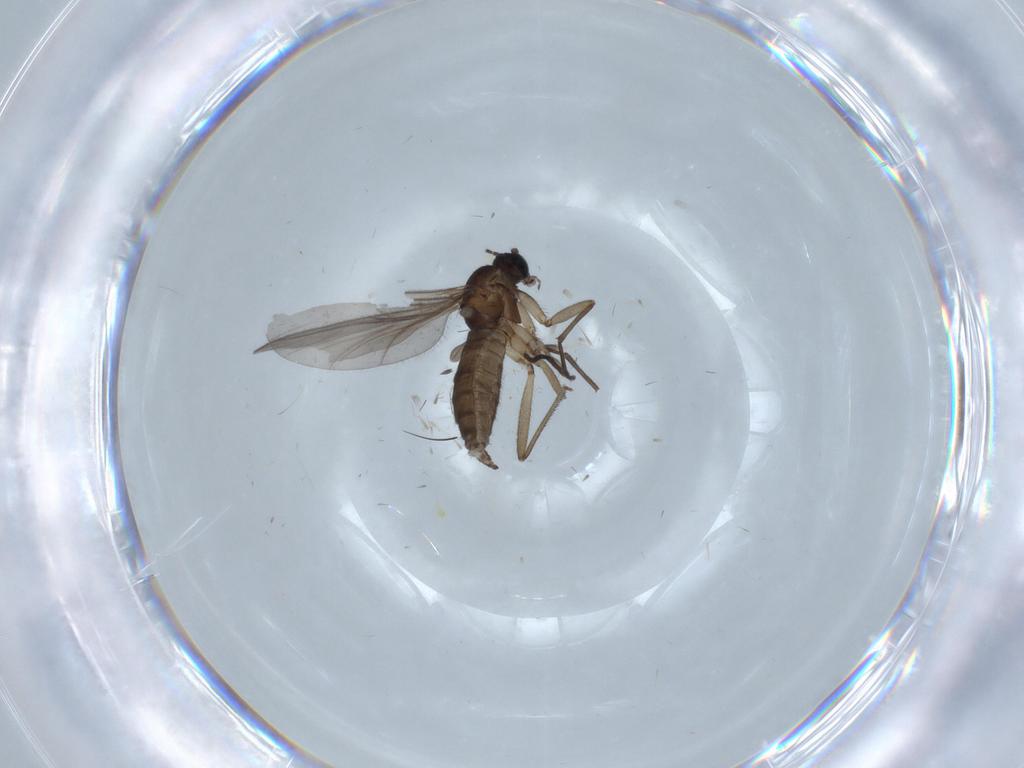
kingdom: Animalia
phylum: Arthropoda
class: Insecta
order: Diptera
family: Sciaridae
